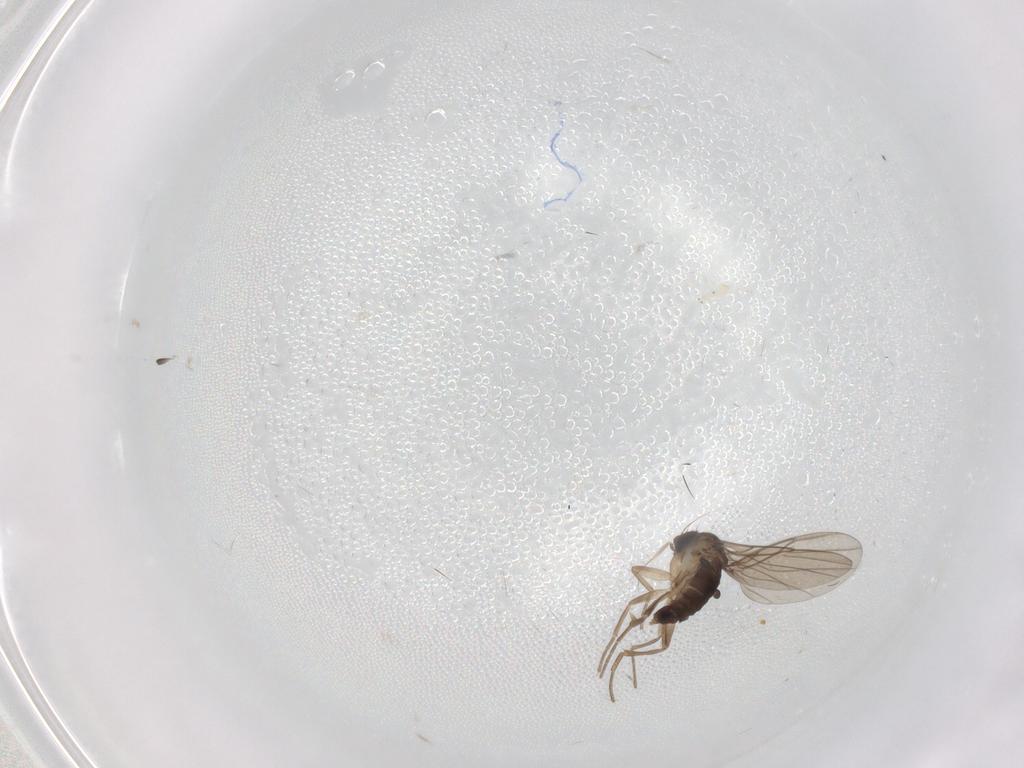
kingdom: Animalia
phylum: Arthropoda
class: Insecta
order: Diptera
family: Phoridae
